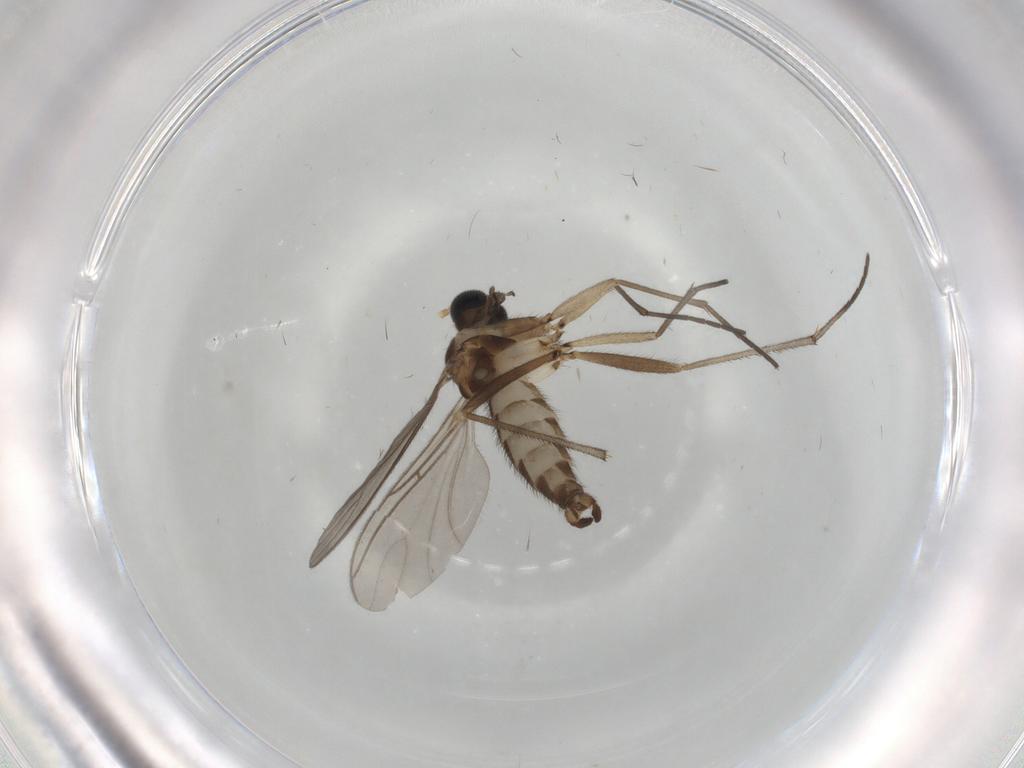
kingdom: Animalia
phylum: Arthropoda
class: Insecta
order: Diptera
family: Sciaridae
